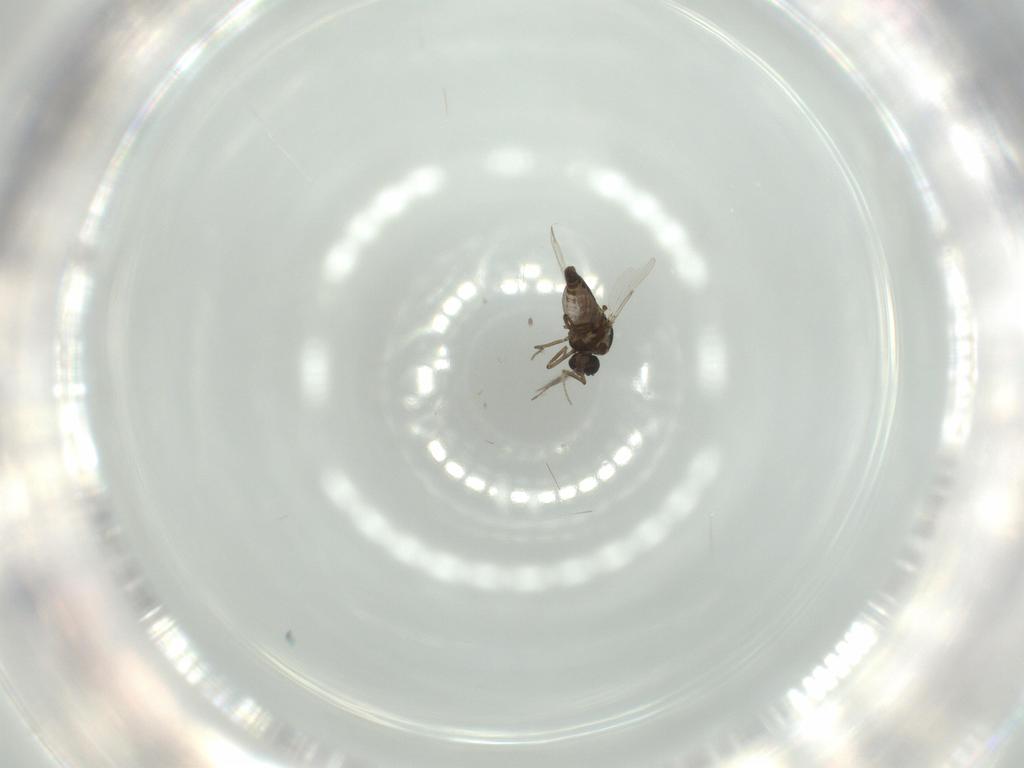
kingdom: Animalia
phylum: Arthropoda
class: Insecta
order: Diptera
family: Ceratopogonidae
